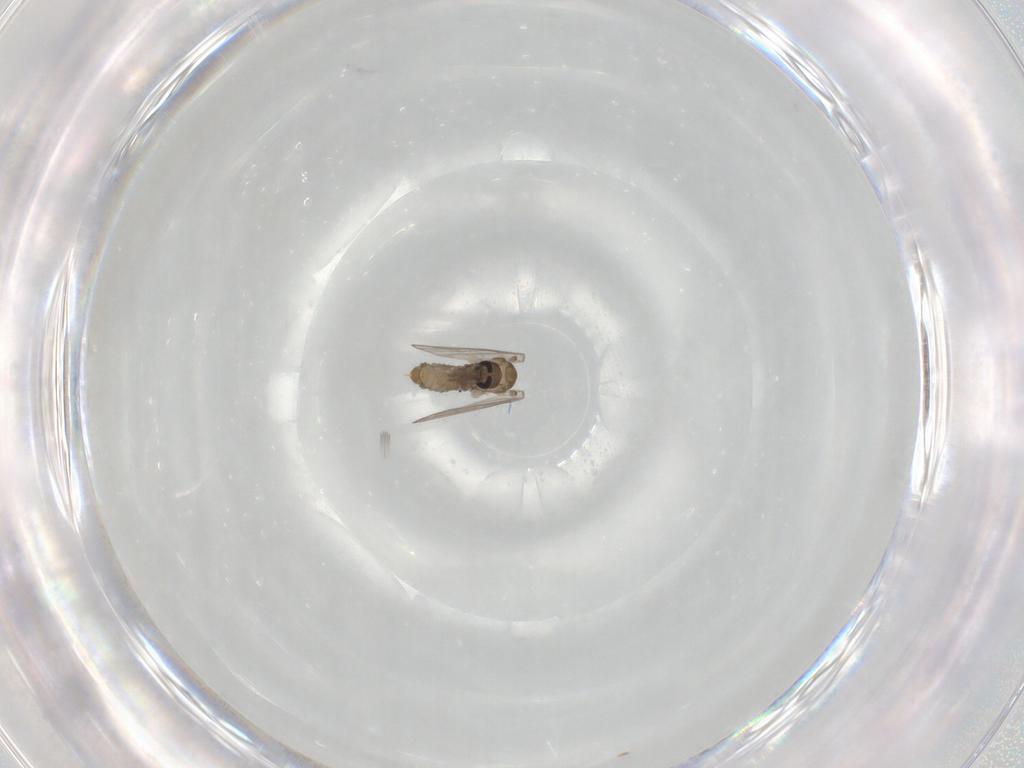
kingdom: Animalia
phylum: Arthropoda
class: Insecta
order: Diptera
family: Psychodidae
